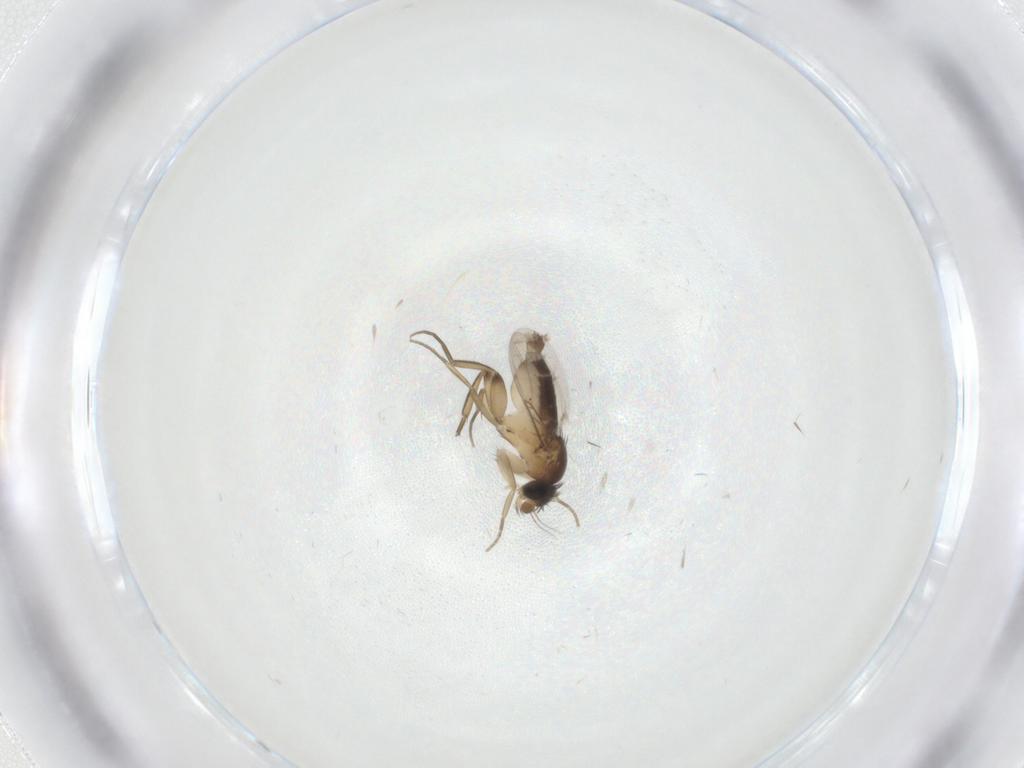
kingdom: Animalia
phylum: Arthropoda
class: Insecta
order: Diptera
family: Phoridae
